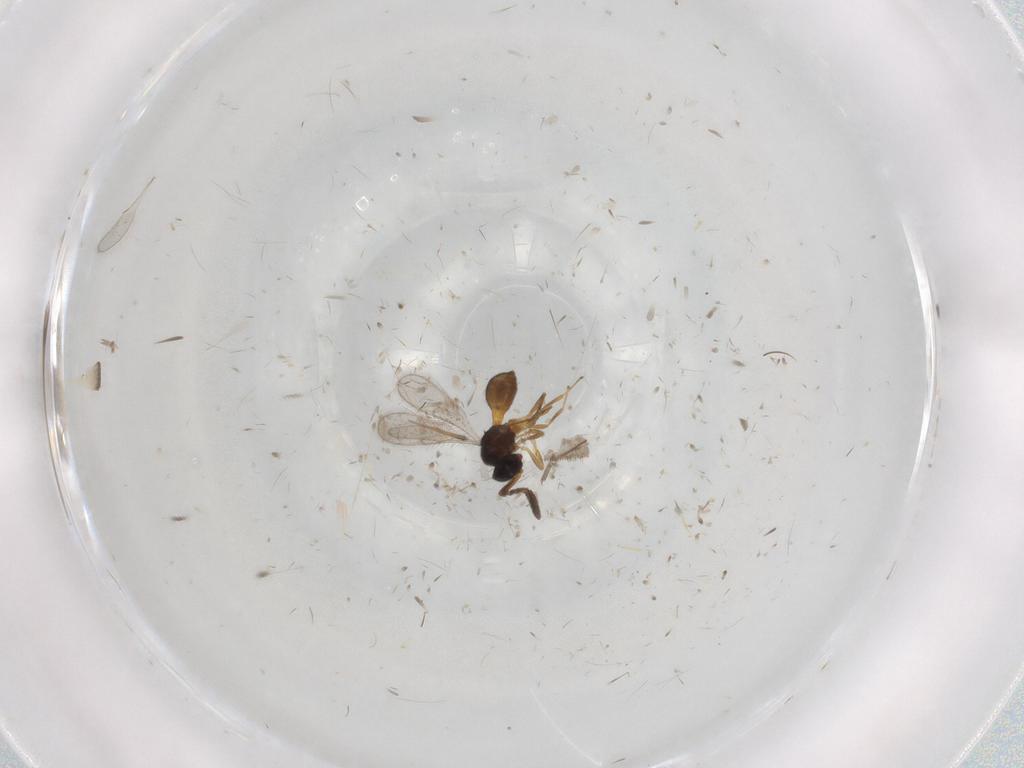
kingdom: Animalia
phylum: Arthropoda
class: Insecta
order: Hymenoptera
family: Scelionidae
